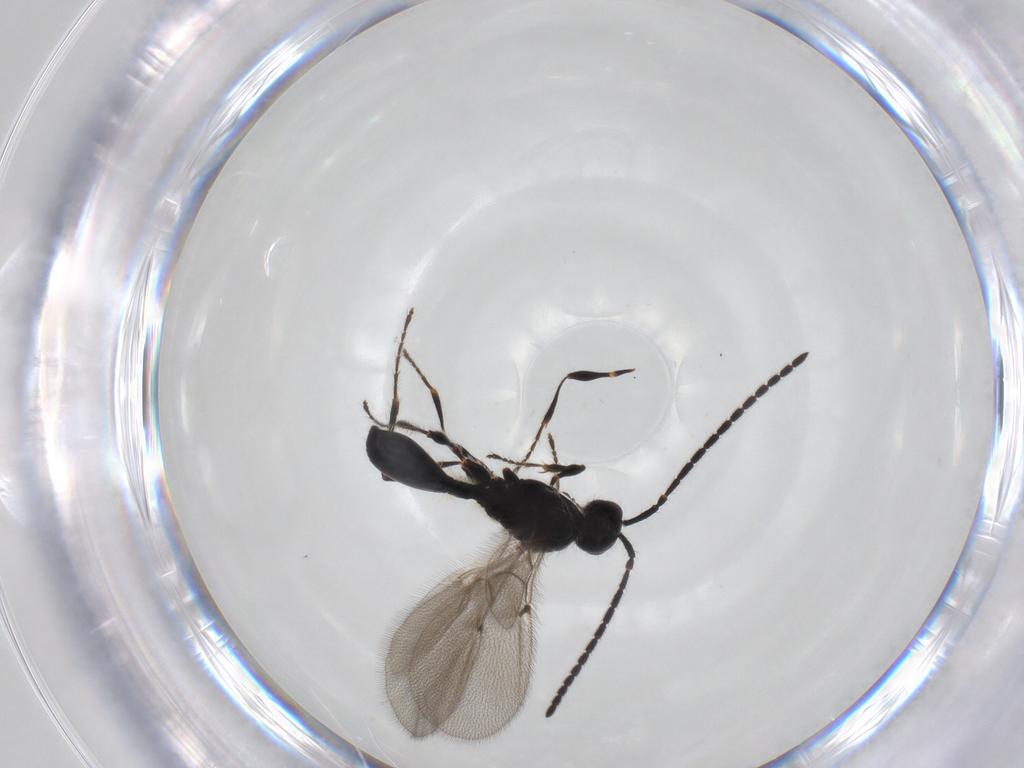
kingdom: Animalia
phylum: Arthropoda
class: Insecta
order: Hymenoptera
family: Diapriidae
